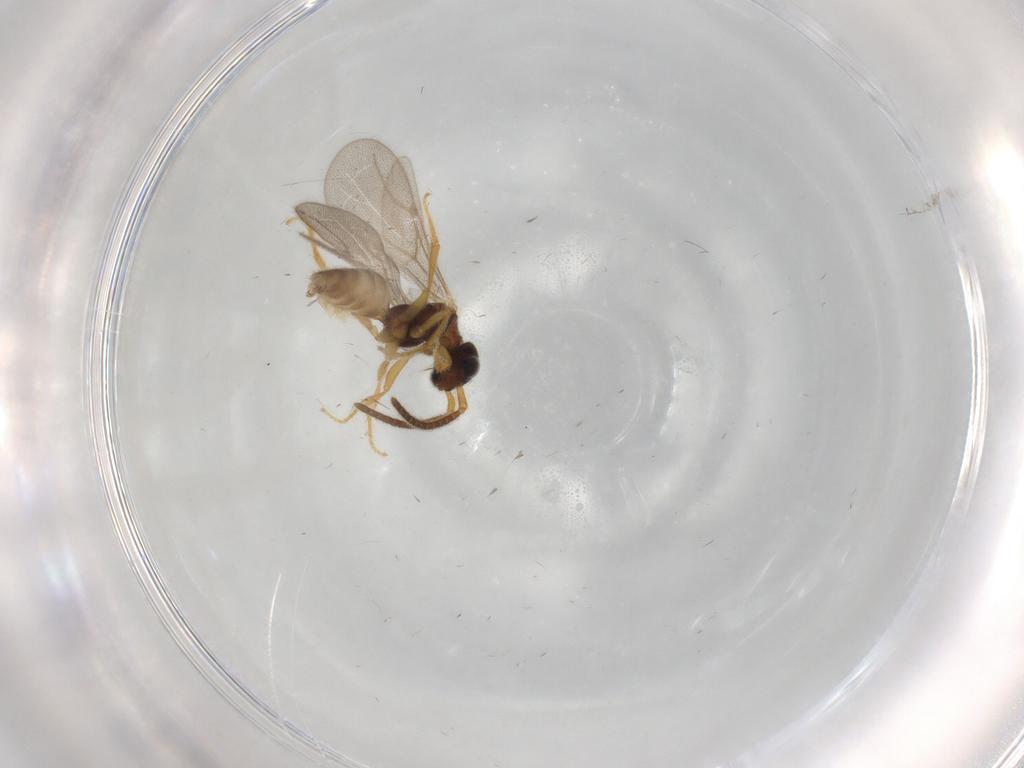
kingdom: Animalia
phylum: Arthropoda
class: Insecta
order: Hymenoptera
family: Bethylidae
